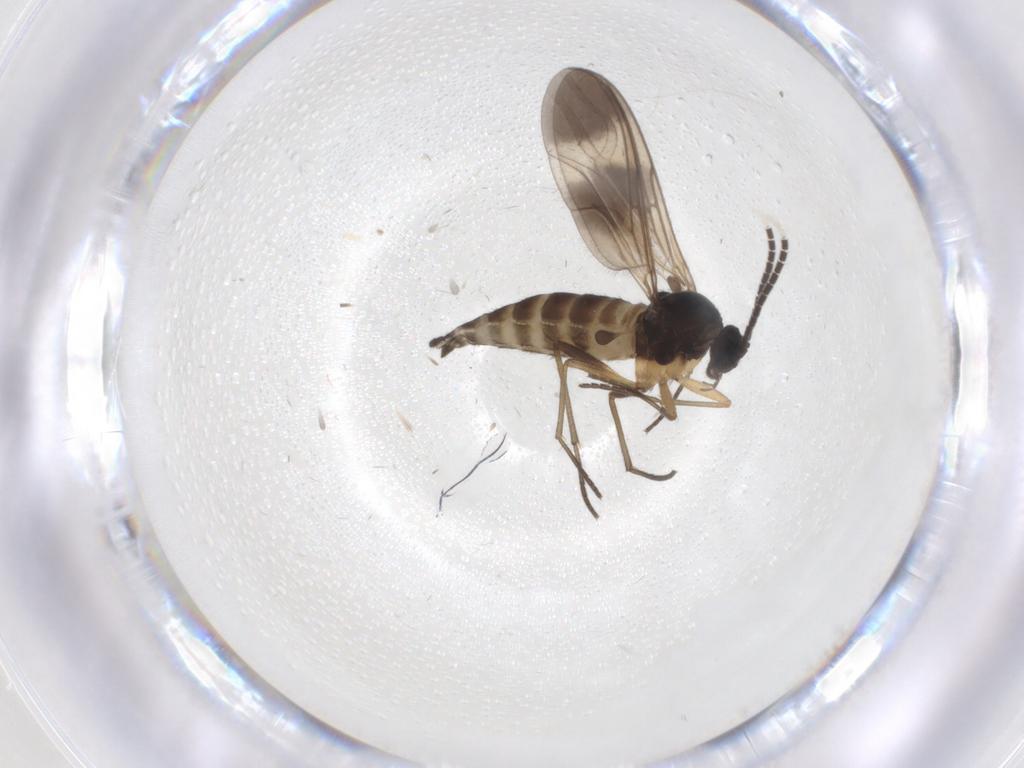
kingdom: Animalia
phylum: Arthropoda
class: Insecta
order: Diptera
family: Sciaridae
